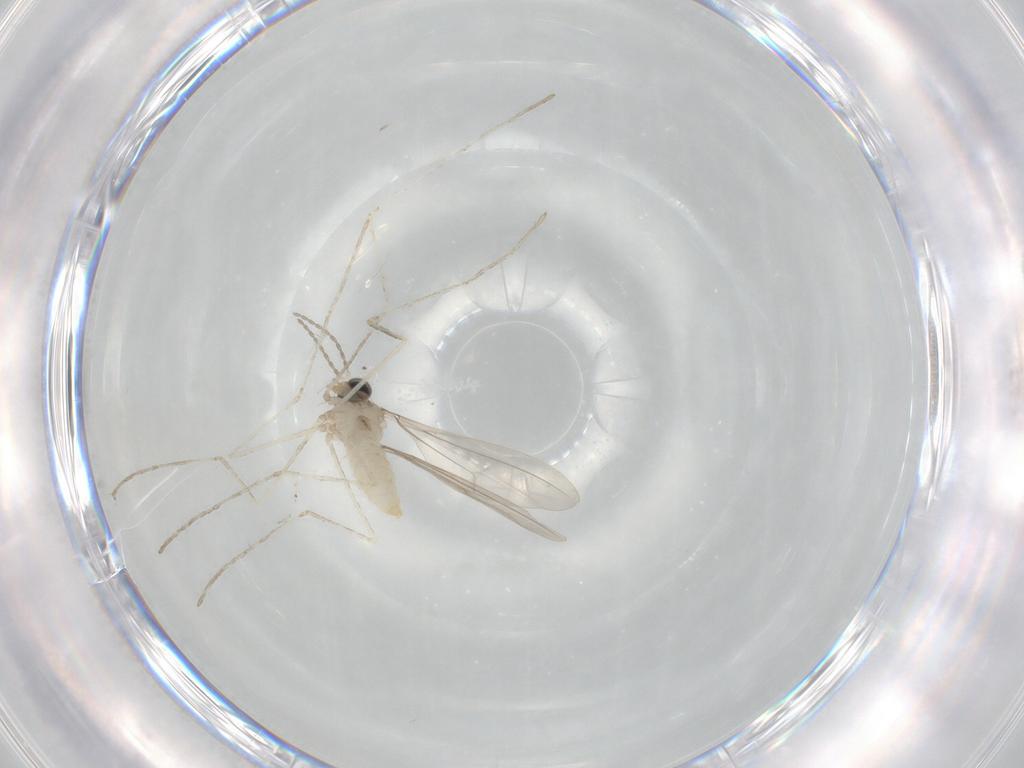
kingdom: Animalia
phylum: Arthropoda
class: Insecta
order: Diptera
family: Cecidomyiidae
